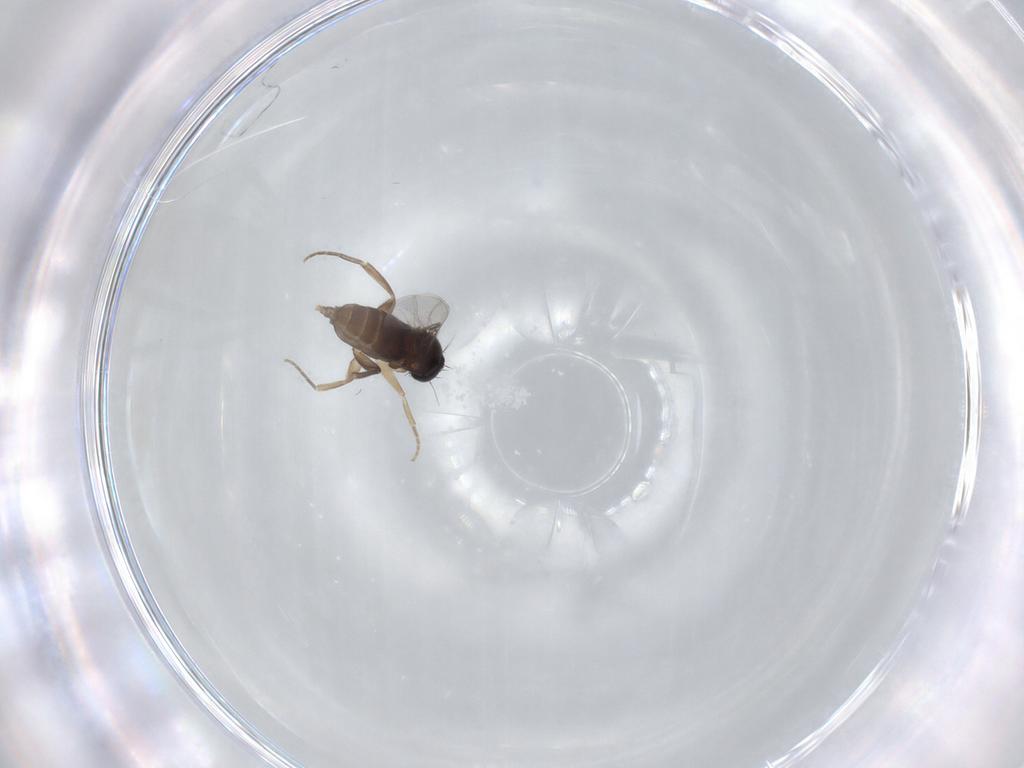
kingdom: Animalia
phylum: Arthropoda
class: Insecta
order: Diptera
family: Phoridae
